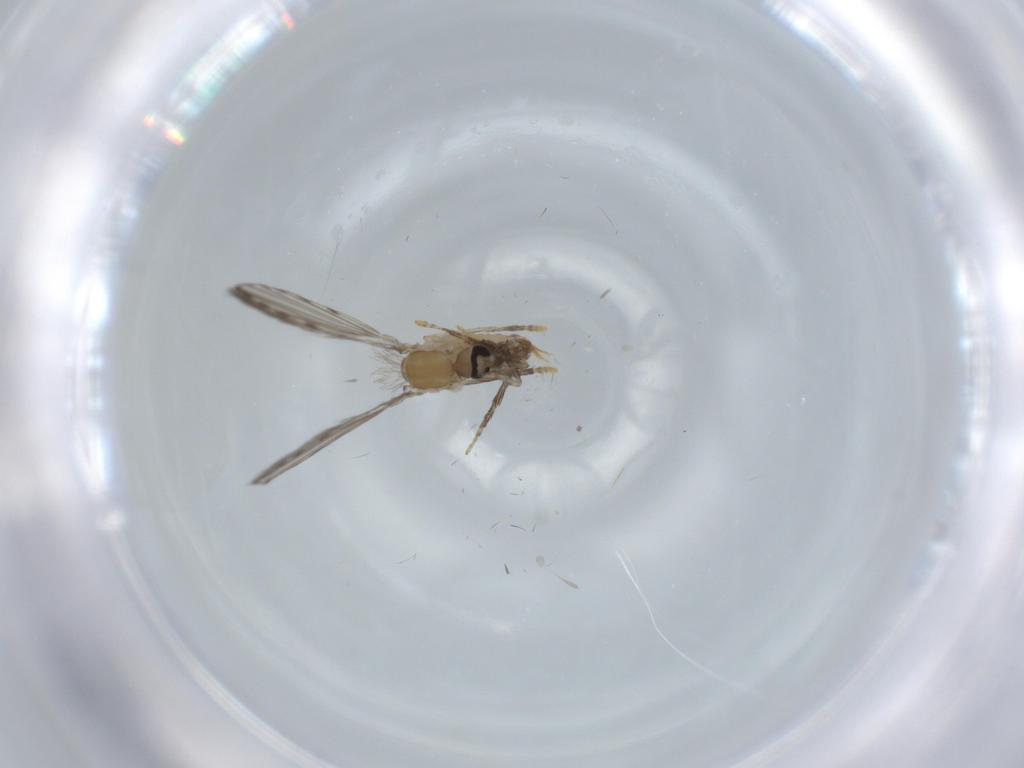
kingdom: Animalia
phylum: Arthropoda
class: Insecta
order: Diptera
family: Psychodidae
